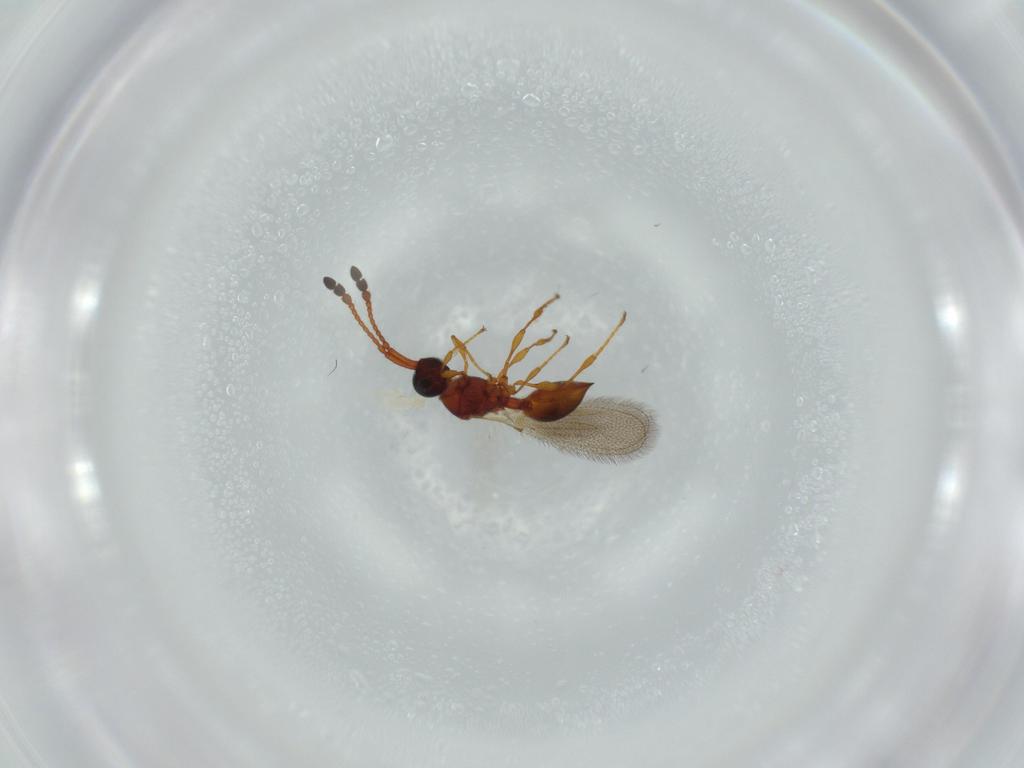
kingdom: Animalia
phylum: Arthropoda
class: Insecta
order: Hymenoptera
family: Diapriidae
